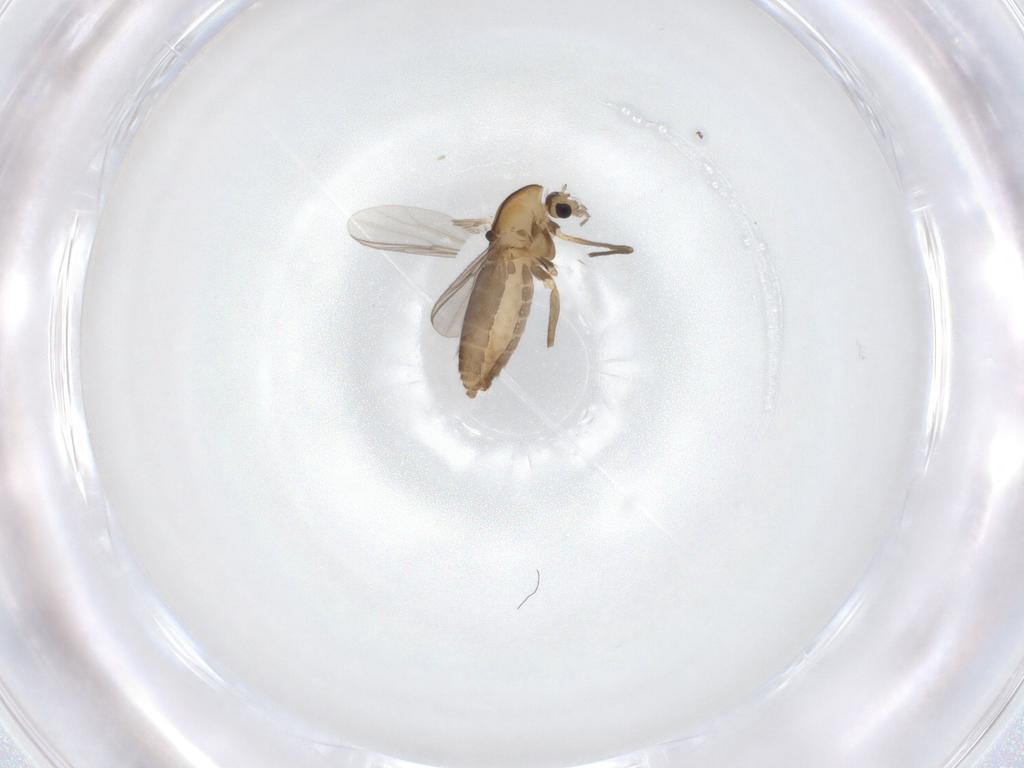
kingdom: Animalia
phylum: Arthropoda
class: Insecta
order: Diptera
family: Chironomidae
